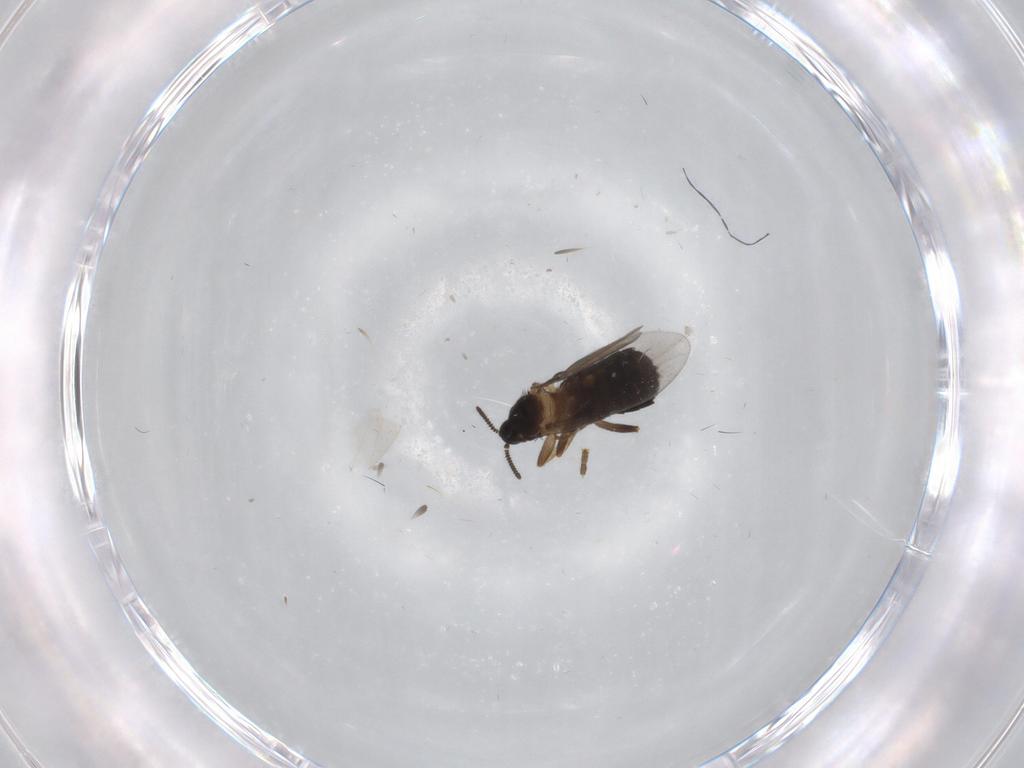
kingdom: Animalia
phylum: Arthropoda
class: Insecta
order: Diptera
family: Scatopsidae
